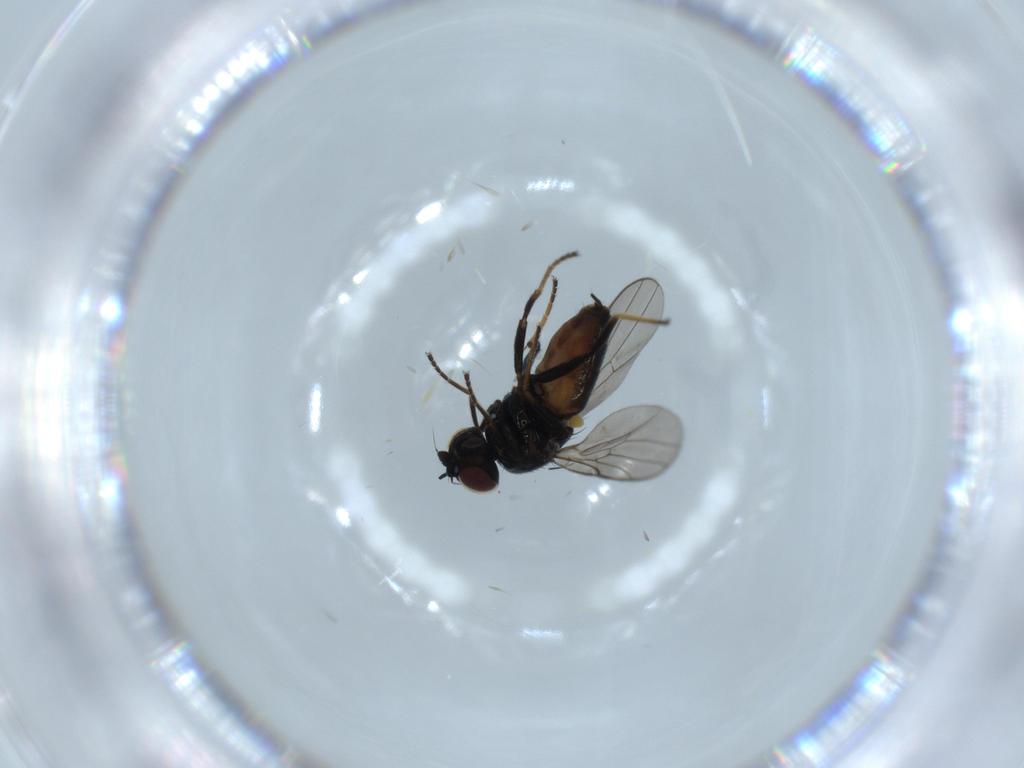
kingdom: Animalia
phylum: Arthropoda
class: Insecta
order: Diptera
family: Chloropidae
